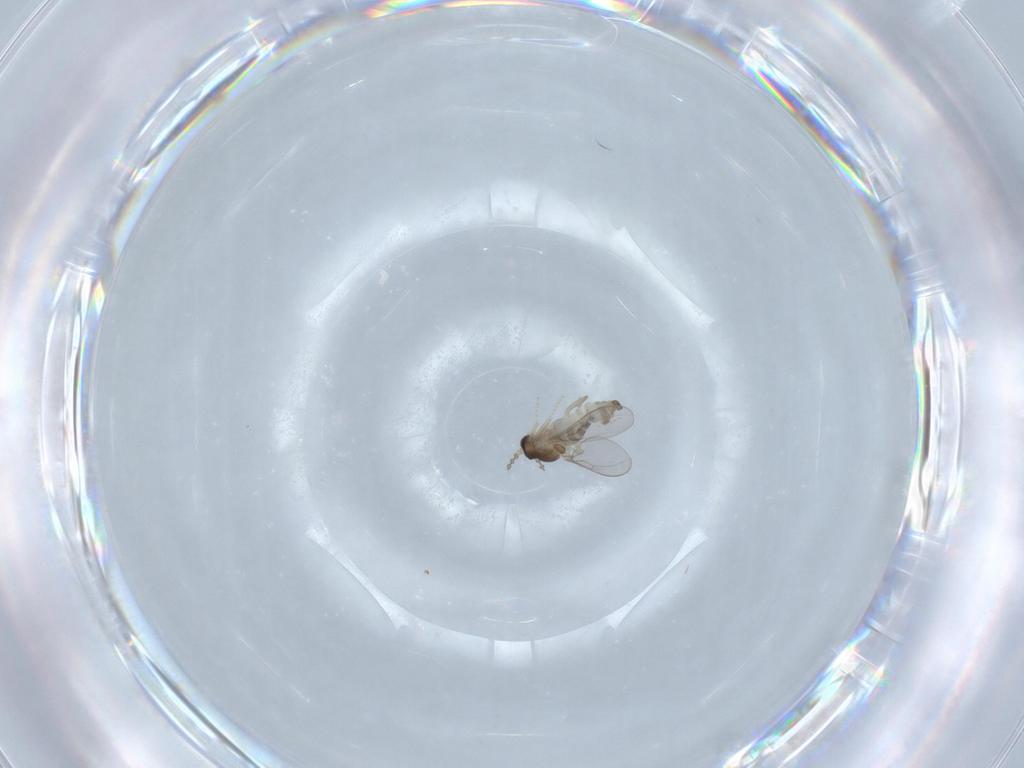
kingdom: Animalia
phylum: Arthropoda
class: Insecta
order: Diptera
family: Cecidomyiidae
